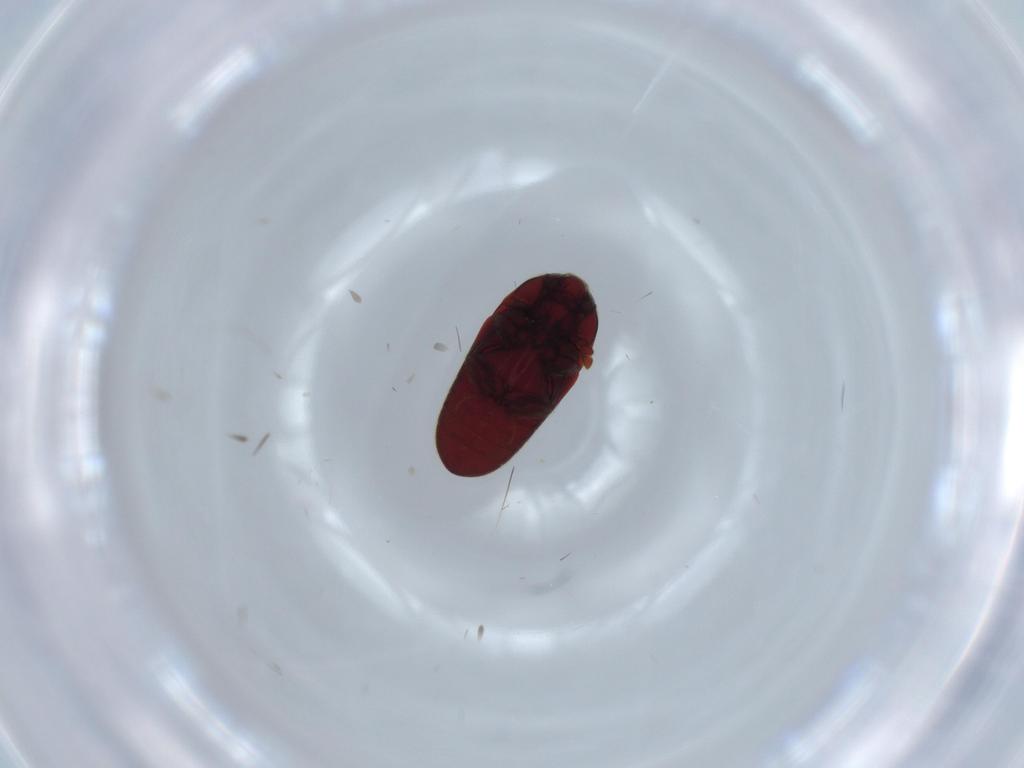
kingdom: Animalia
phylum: Arthropoda
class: Insecta
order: Coleoptera
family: Throscidae
